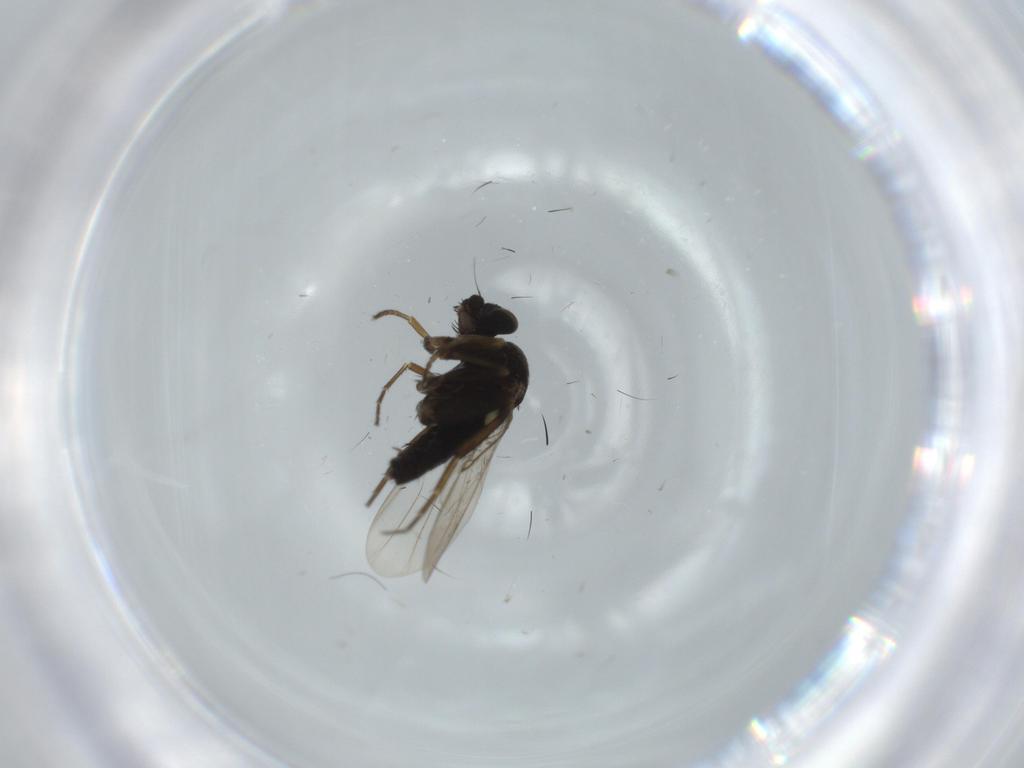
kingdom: Animalia
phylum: Arthropoda
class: Insecta
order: Diptera
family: Phoridae
